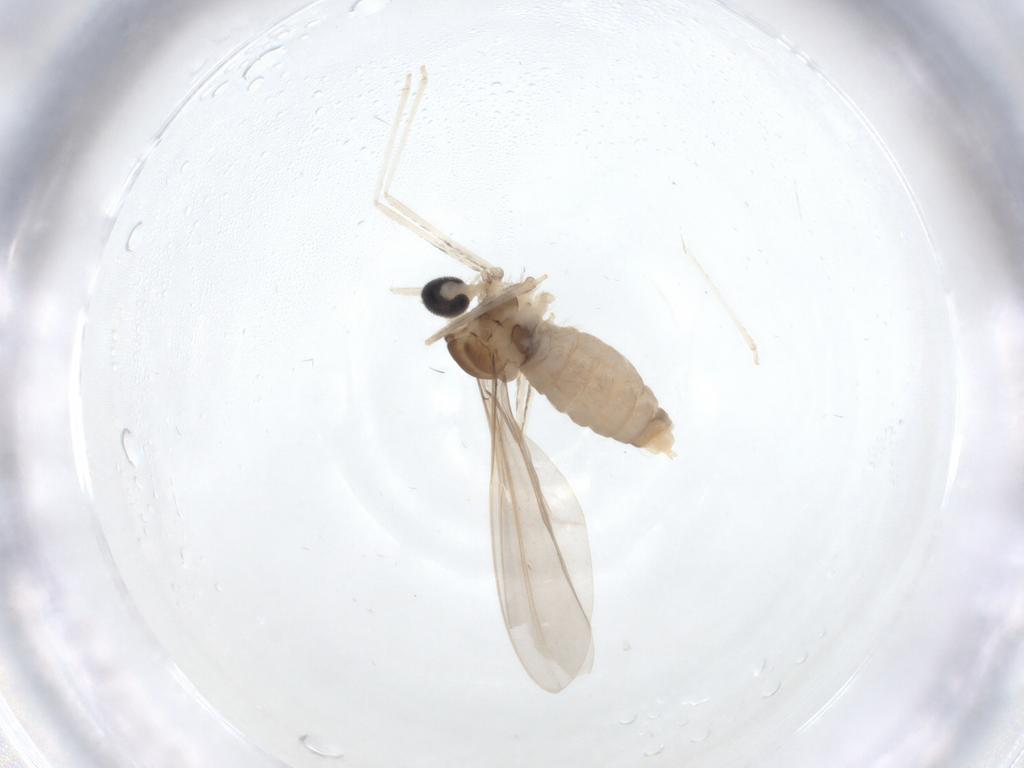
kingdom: Animalia
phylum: Arthropoda
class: Insecta
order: Diptera
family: Cecidomyiidae
